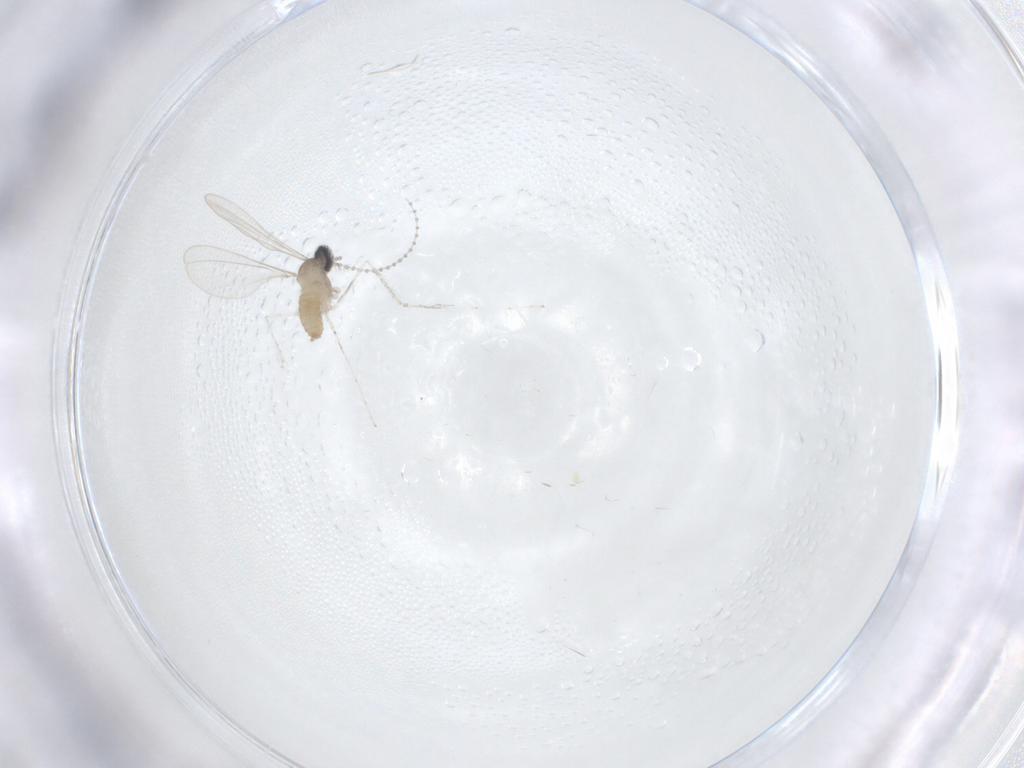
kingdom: Animalia
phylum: Arthropoda
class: Insecta
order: Diptera
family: Cecidomyiidae
